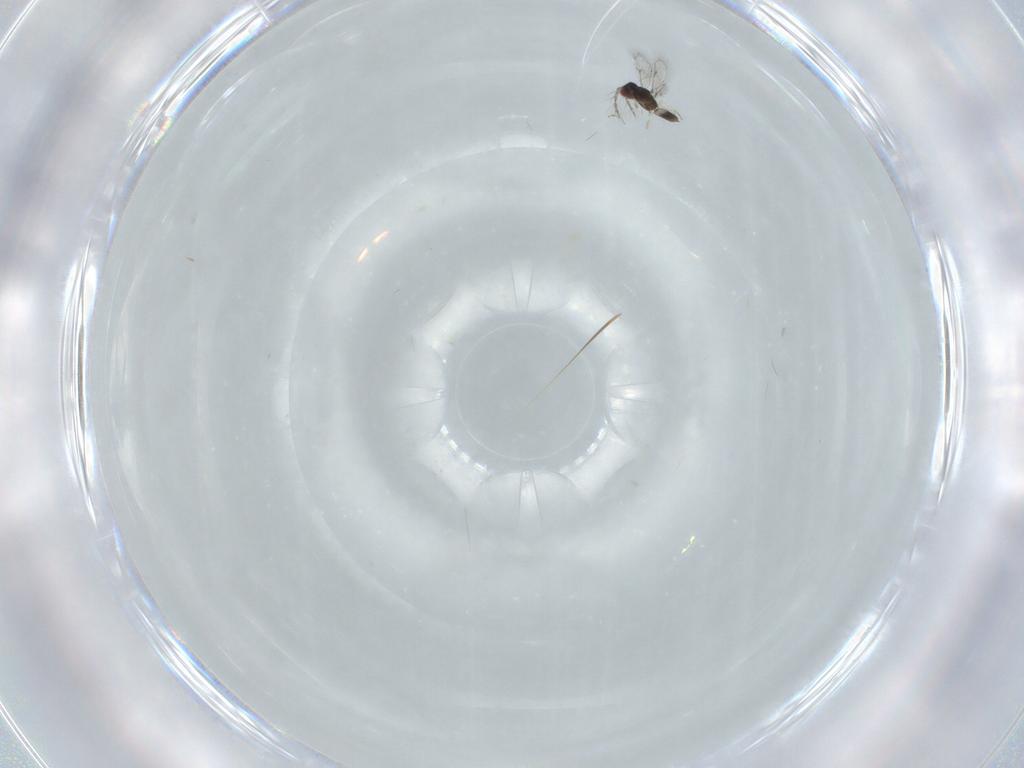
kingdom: Animalia
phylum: Arthropoda
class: Insecta
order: Hymenoptera
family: Eulophidae
